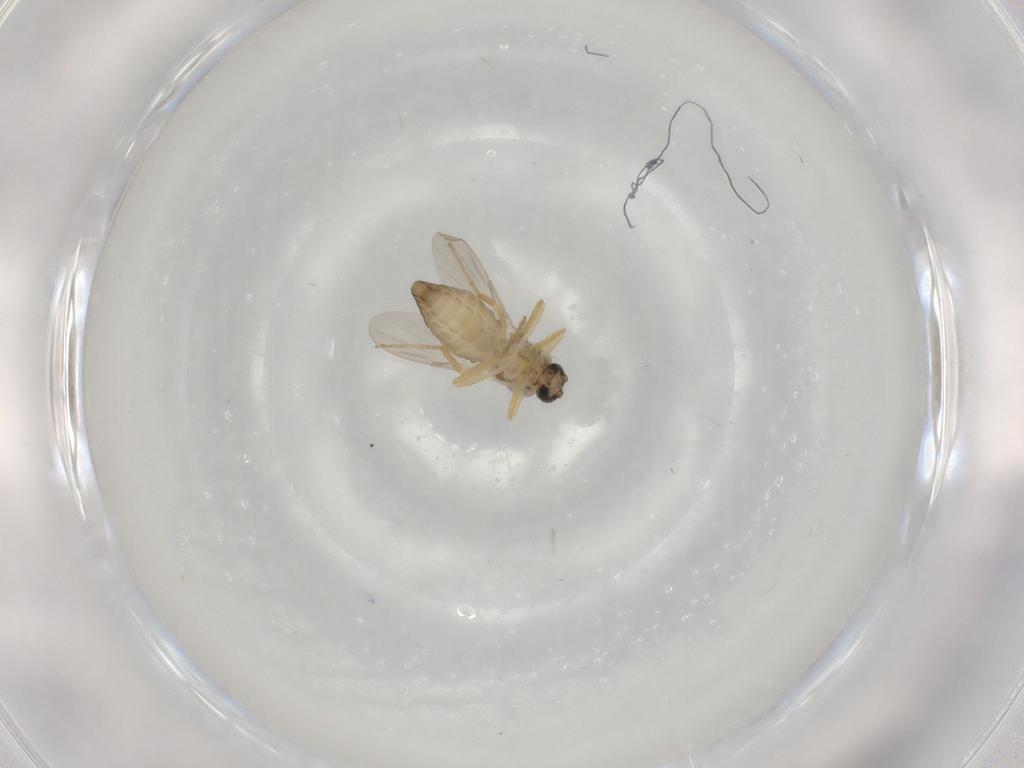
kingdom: Animalia
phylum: Arthropoda
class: Insecta
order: Diptera
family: Ceratopogonidae
